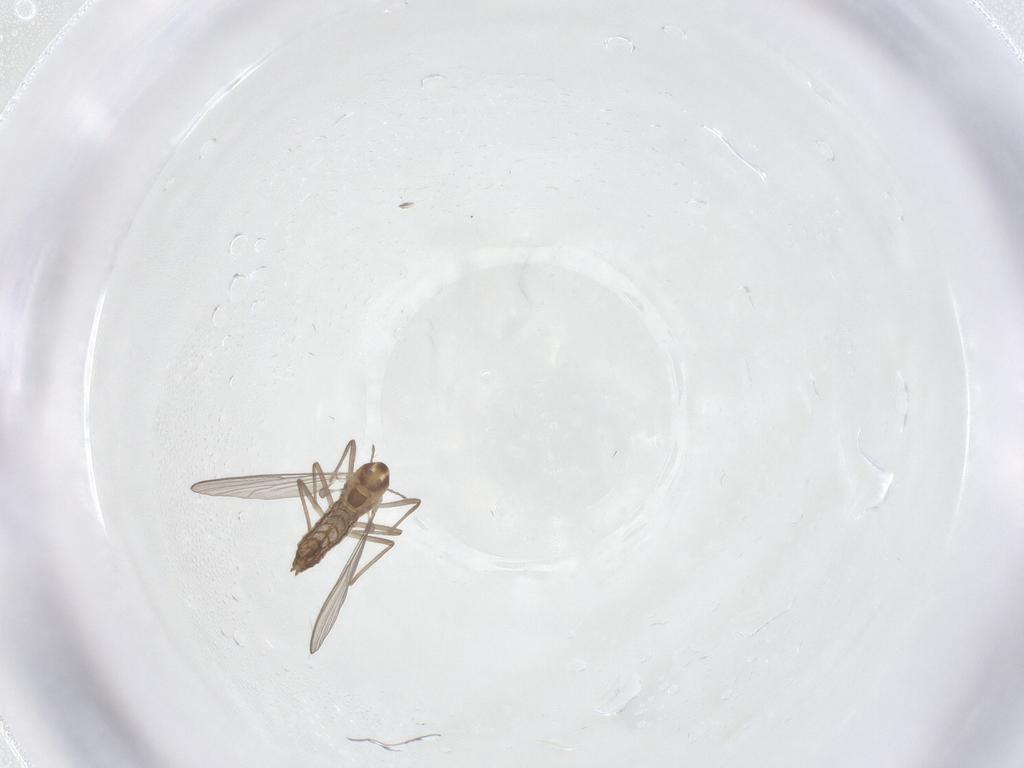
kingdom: Animalia
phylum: Arthropoda
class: Insecta
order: Diptera
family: Chironomidae
